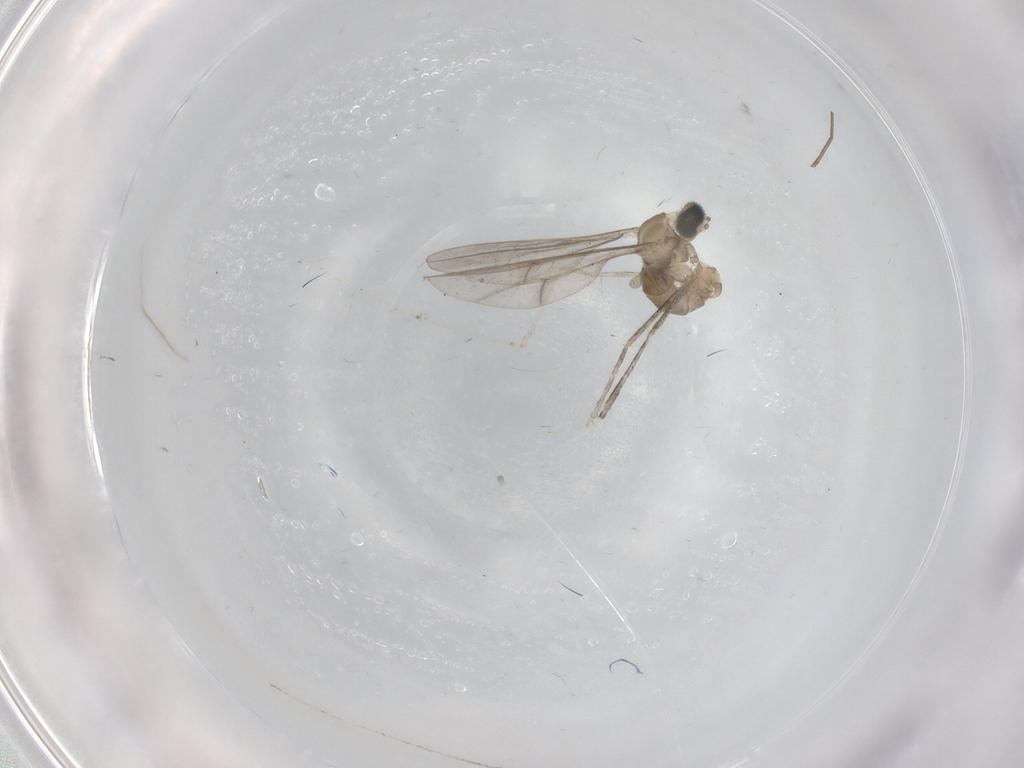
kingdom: Animalia
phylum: Arthropoda
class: Insecta
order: Diptera
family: Cecidomyiidae
